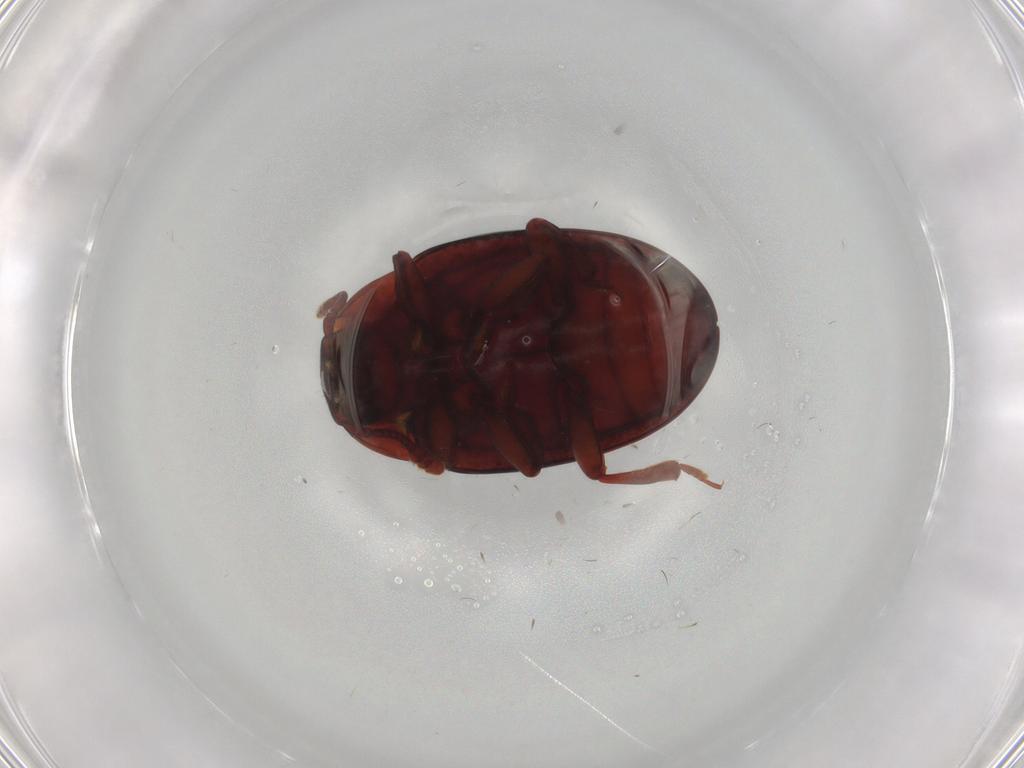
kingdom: Animalia
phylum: Arthropoda
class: Insecta
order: Coleoptera
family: Zopheridae
